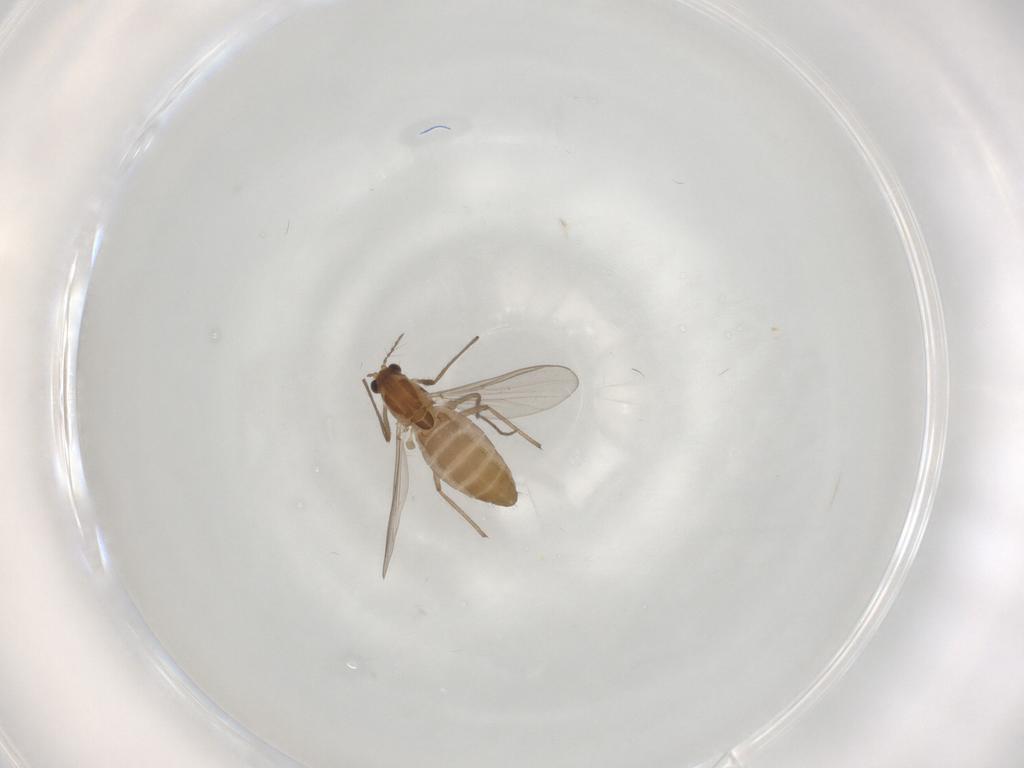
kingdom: Animalia
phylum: Arthropoda
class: Insecta
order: Diptera
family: Chironomidae
